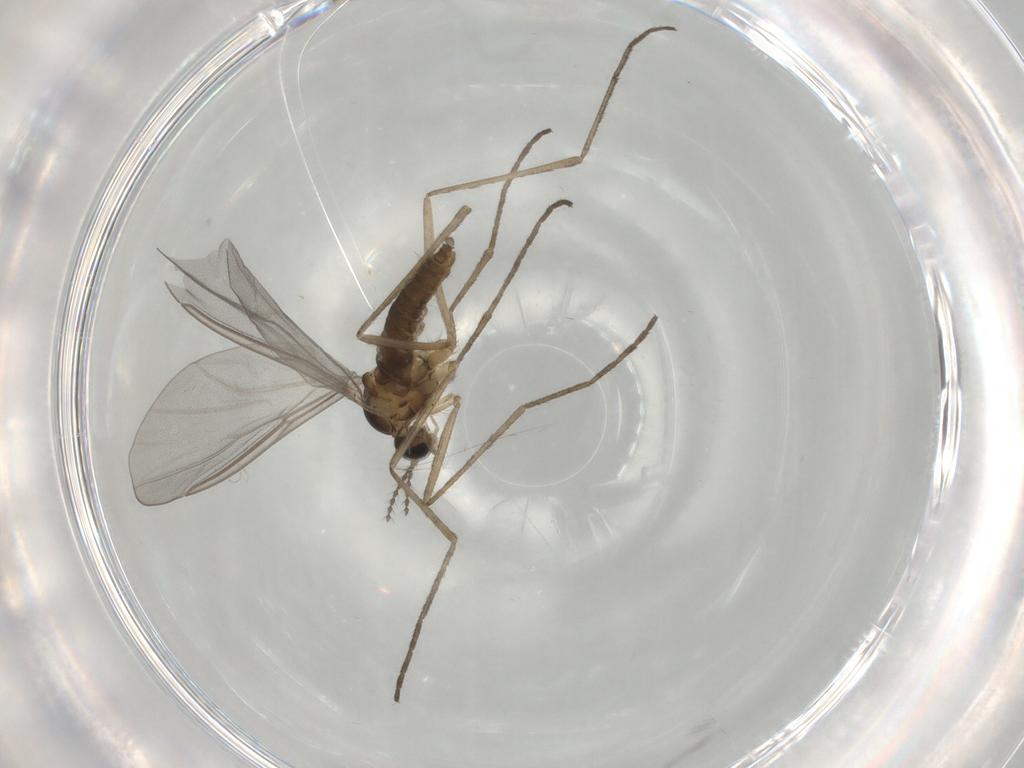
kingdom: Animalia
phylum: Arthropoda
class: Insecta
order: Diptera
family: Cecidomyiidae
